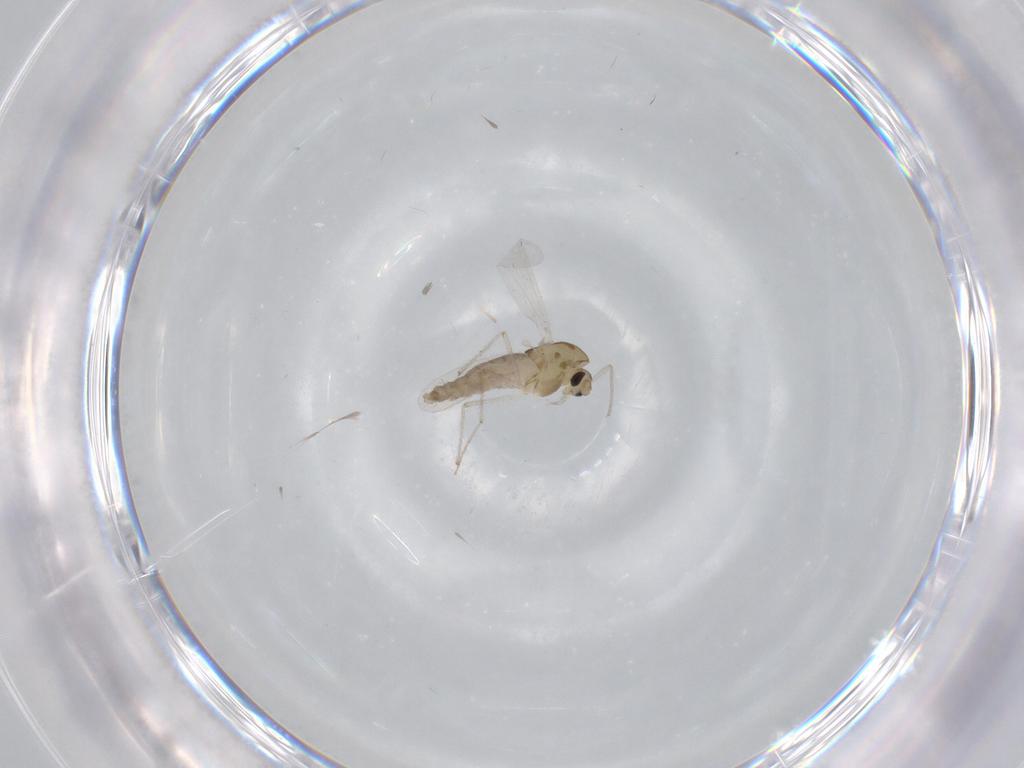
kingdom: Animalia
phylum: Arthropoda
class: Insecta
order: Diptera
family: Chironomidae
